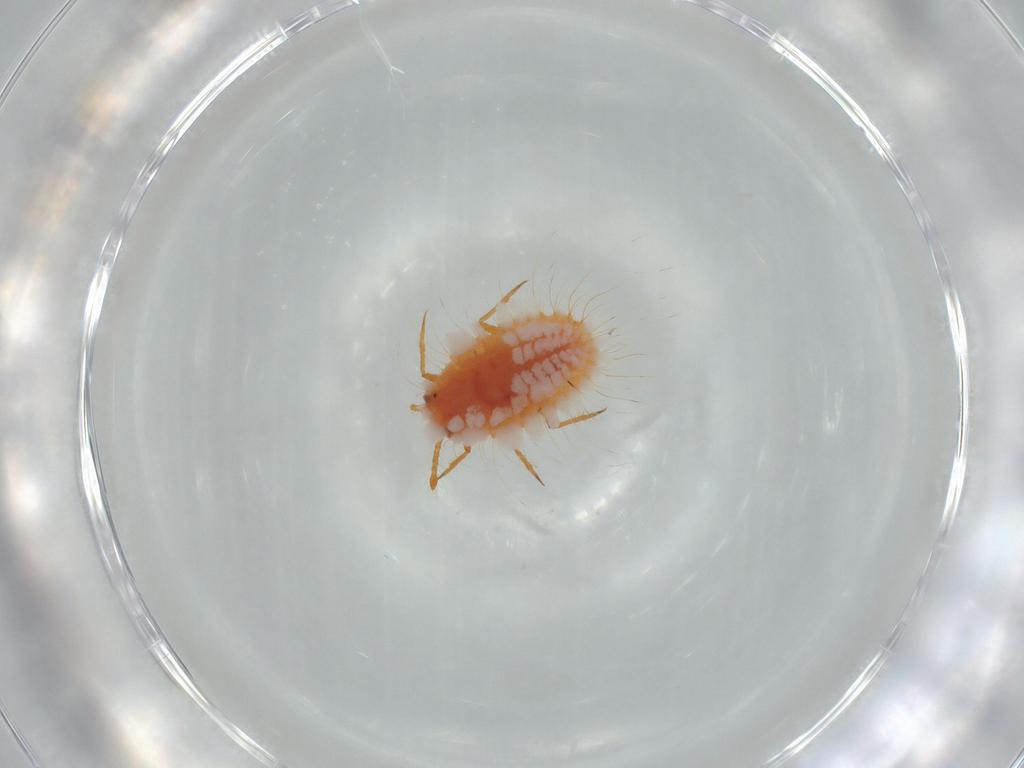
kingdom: Animalia
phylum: Arthropoda
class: Insecta
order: Hemiptera
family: Coccoidea_incertae_sedis
